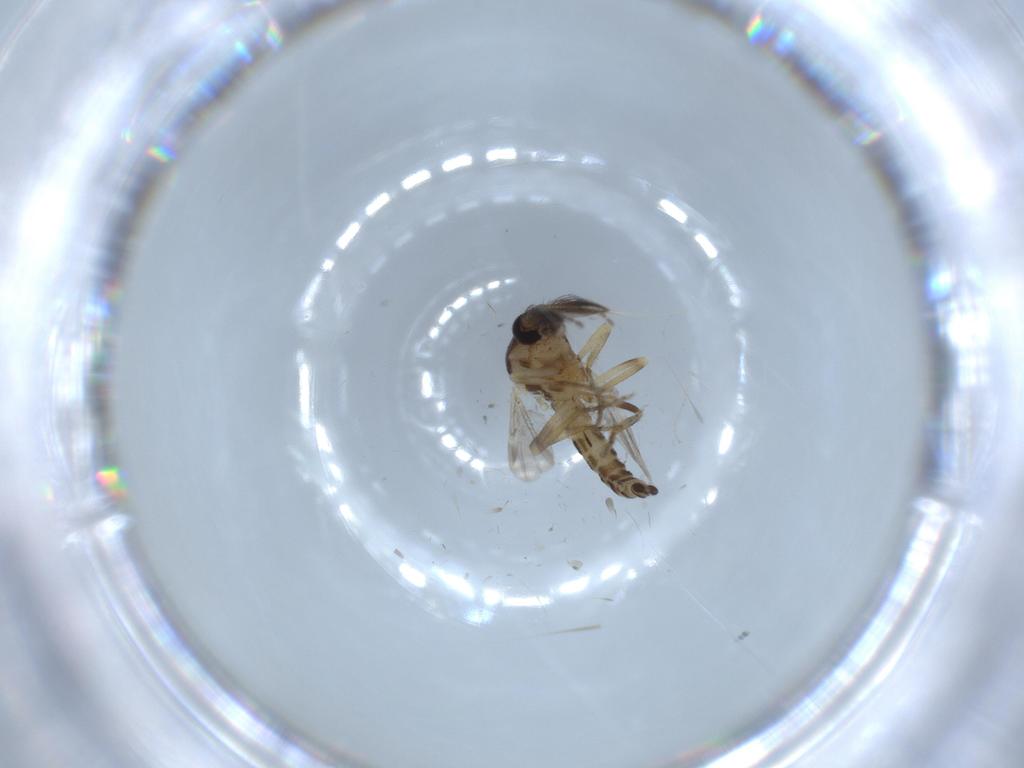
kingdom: Animalia
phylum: Arthropoda
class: Insecta
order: Diptera
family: Ceratopogonidae
